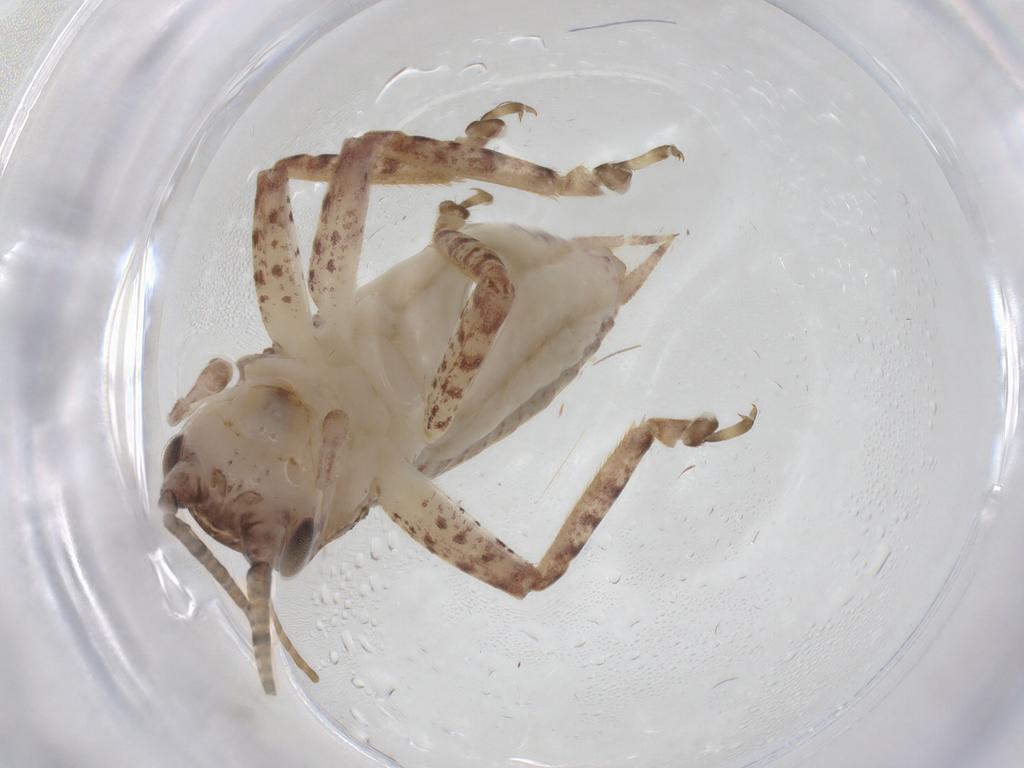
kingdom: Animalia
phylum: Arthropoda
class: Insecta
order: Orthoptera
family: Gryllidae
